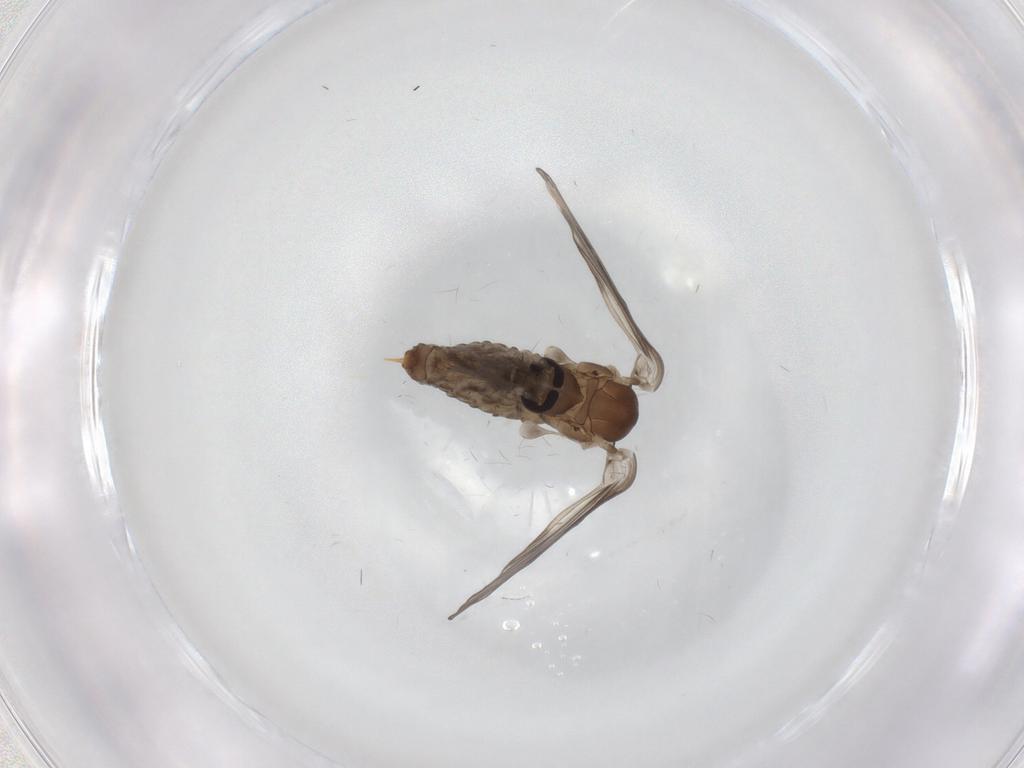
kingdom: Animalia
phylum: Arthropoda
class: Insecta
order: Diptera
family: Psychodidae
